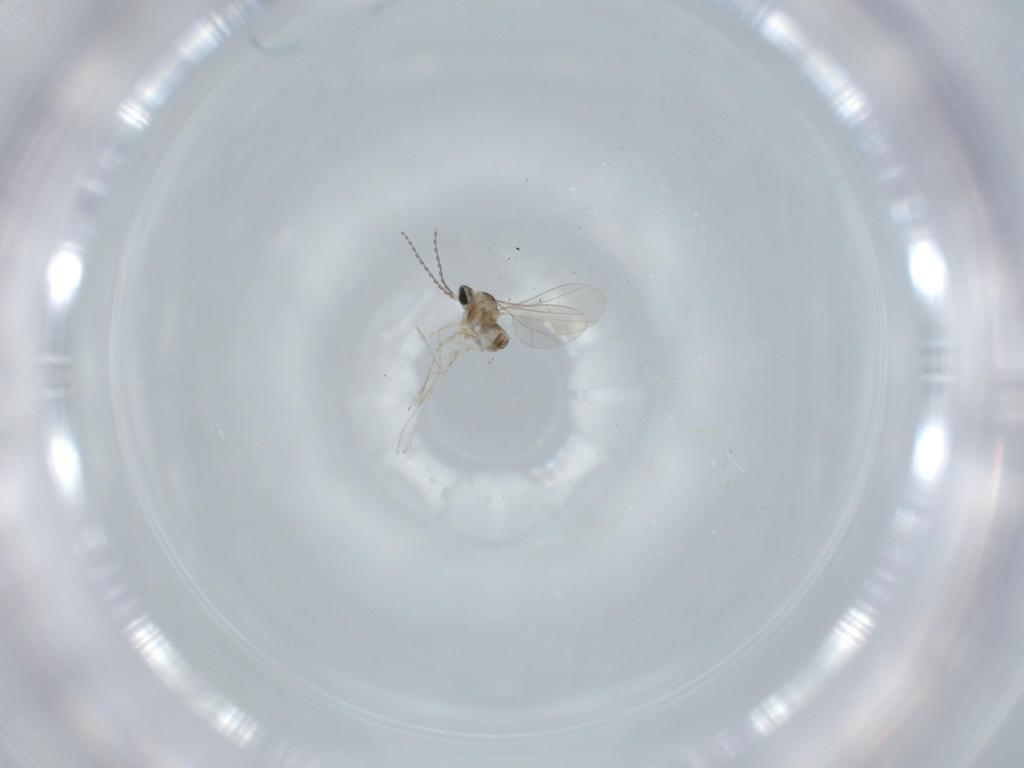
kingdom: Animalia
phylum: Arthropoda
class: Insecta
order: Diptera
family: Cecidomyiidae
